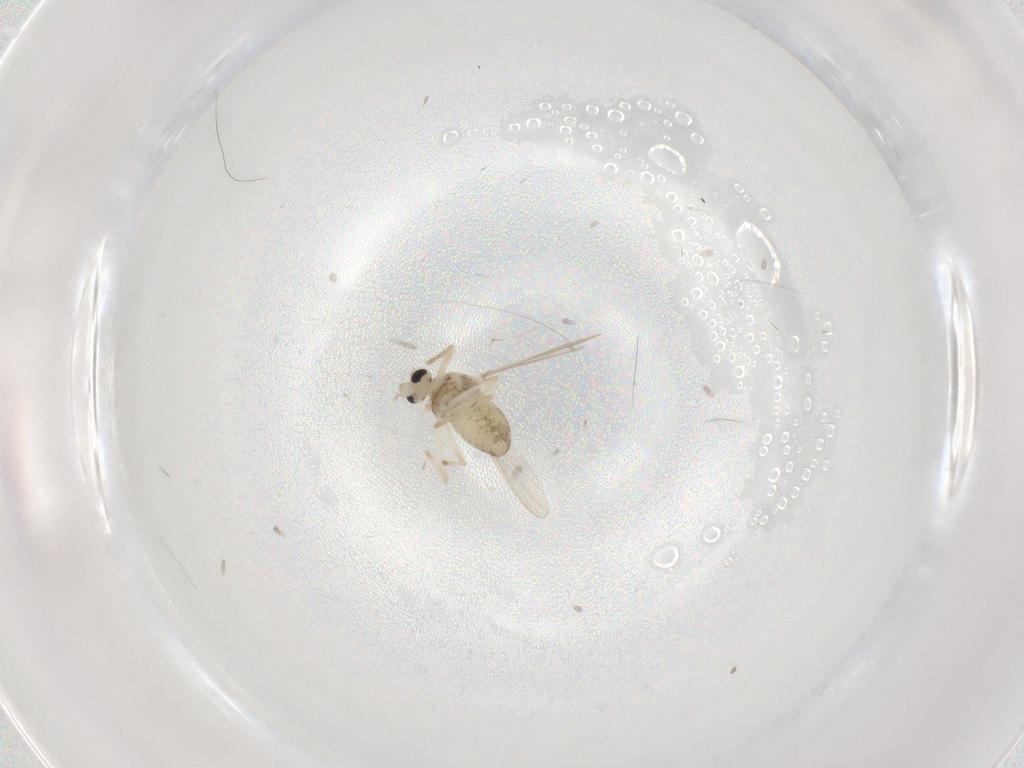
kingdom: Animalia
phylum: Arthropoda
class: Insecta
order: Diptera
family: Chironomidae
